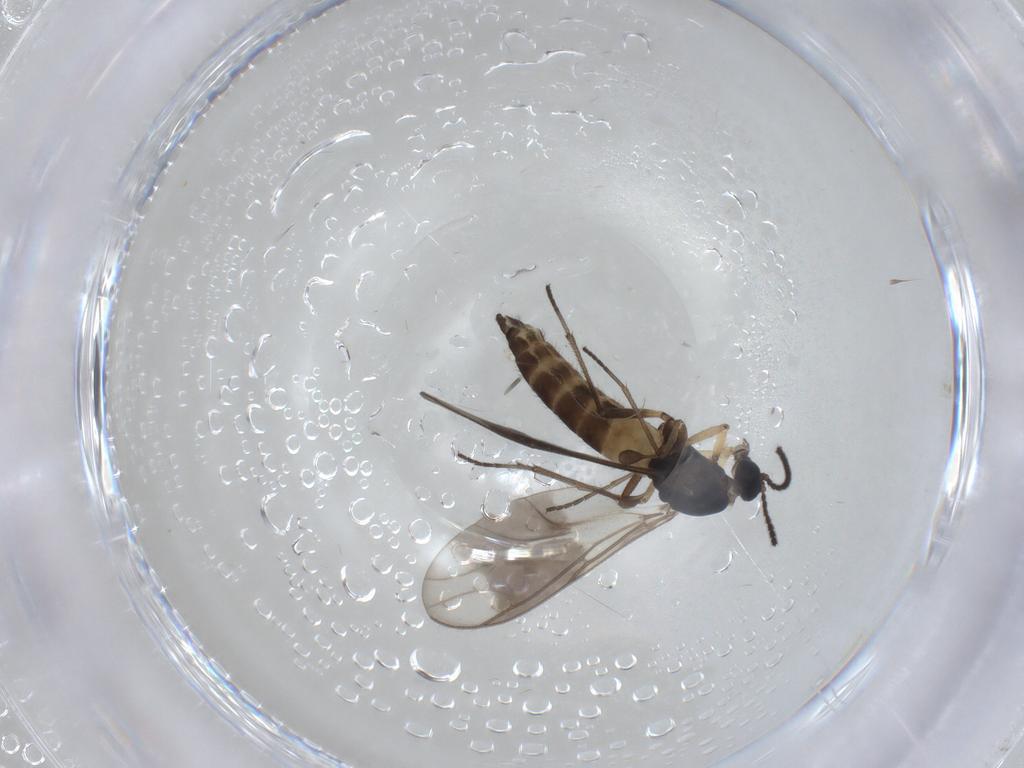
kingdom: Animalia
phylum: Arthropoda
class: Insecta
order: Diptera
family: Sciaridae
